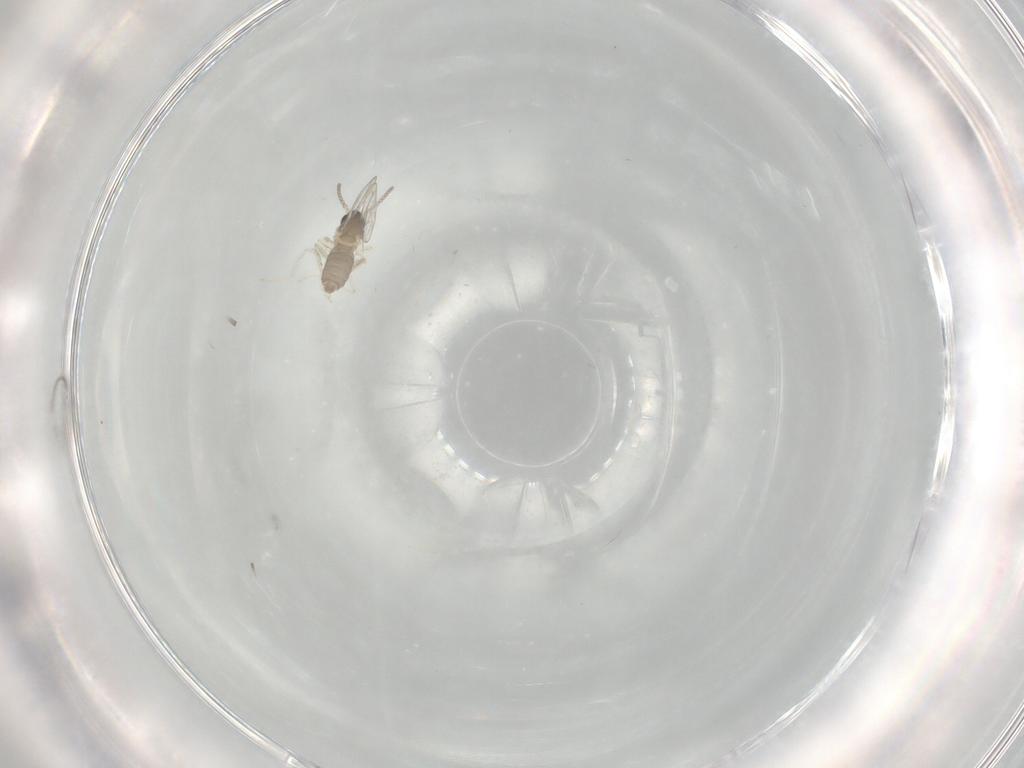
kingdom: Animalia
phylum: Arthropoda
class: Insecta
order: Diptera
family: Cecidomyiidae
